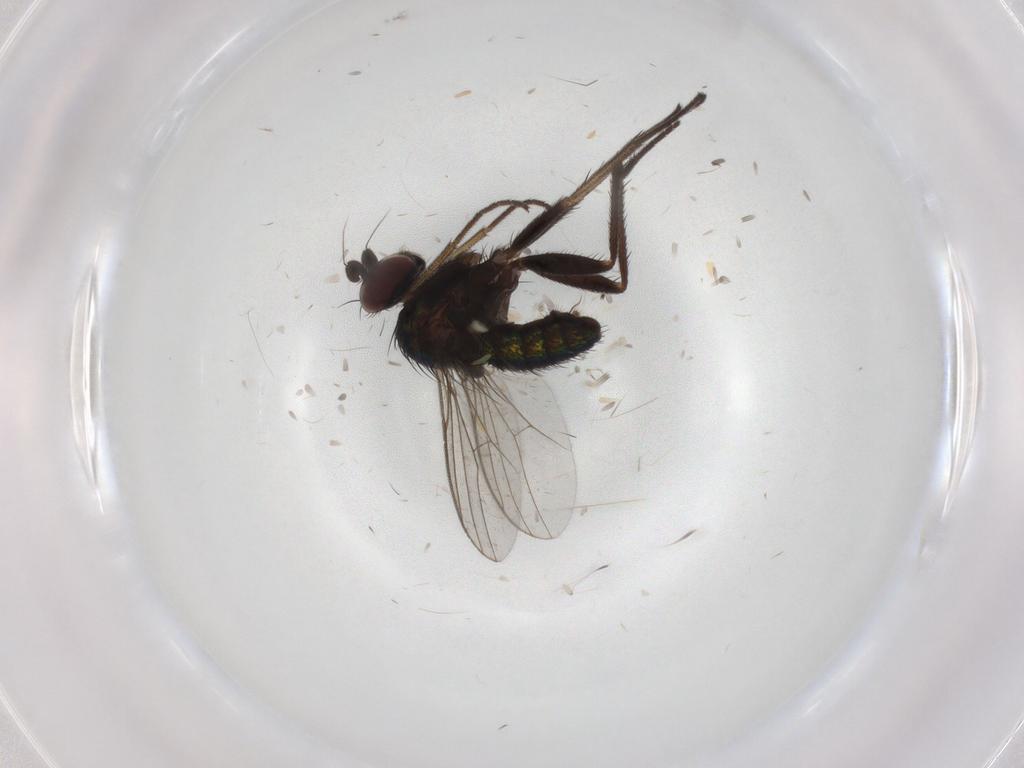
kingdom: Animalia
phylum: Arthropoda
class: Insecta
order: Diptera
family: Dolichopodidae
